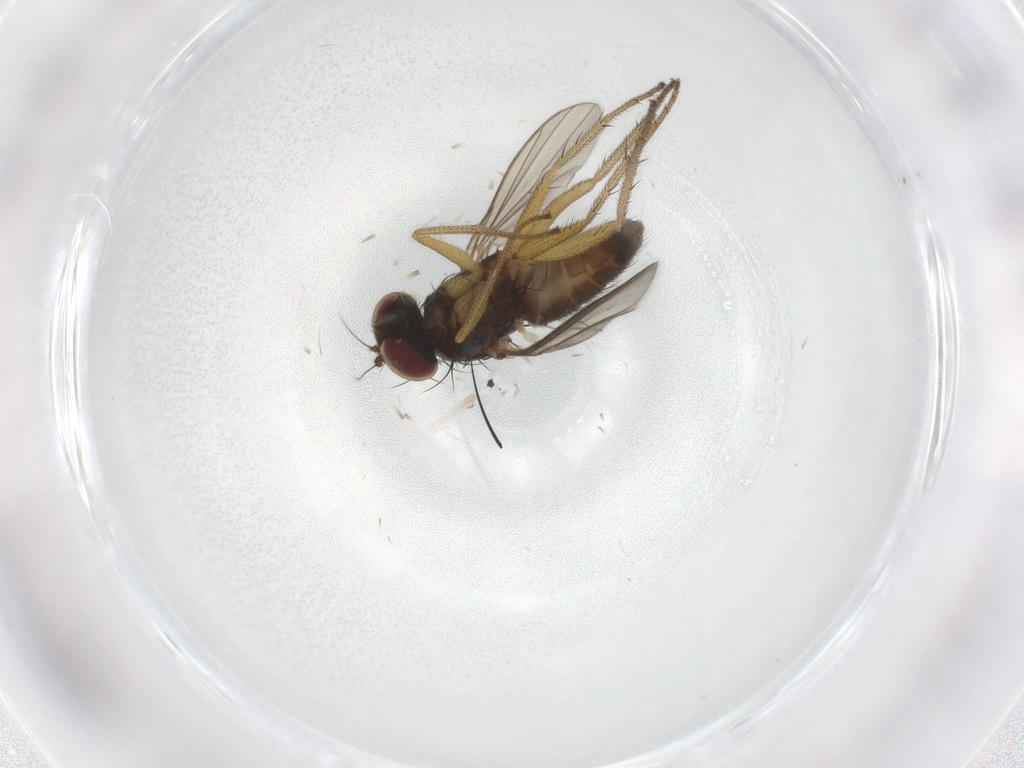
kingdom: Animalia
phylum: Arthropoda
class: Insecta
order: Diptera
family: Dolichopodidae
